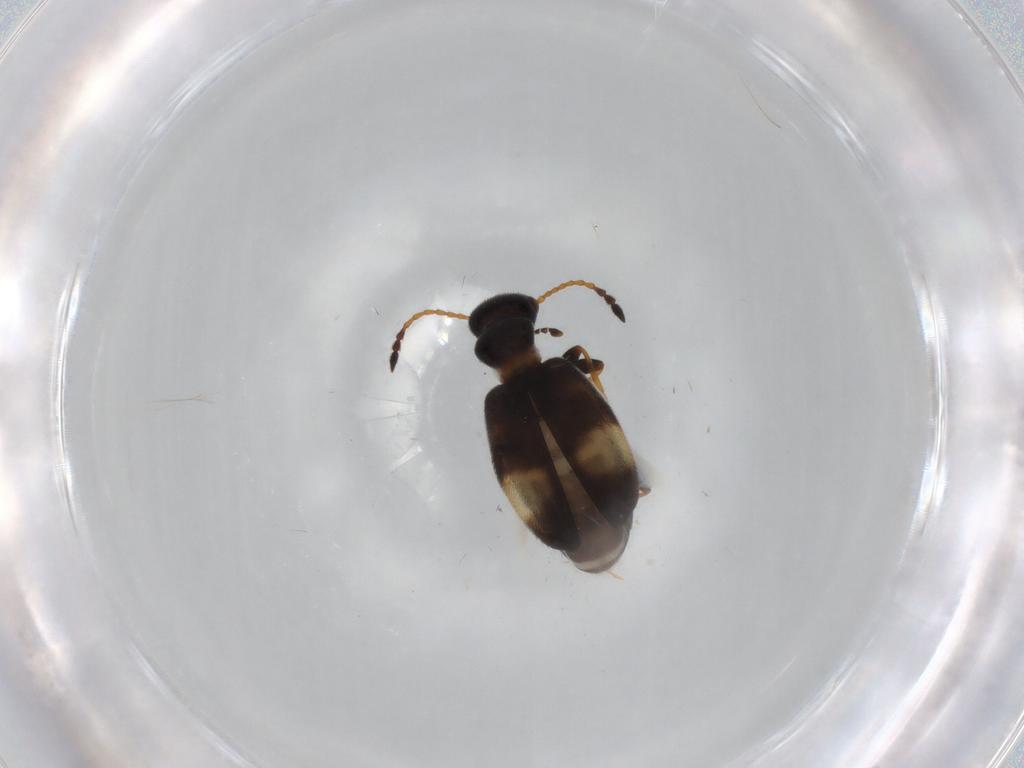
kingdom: Animalia
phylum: Arthropoda
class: Insecta
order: Coleoptera
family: Anthicidae
